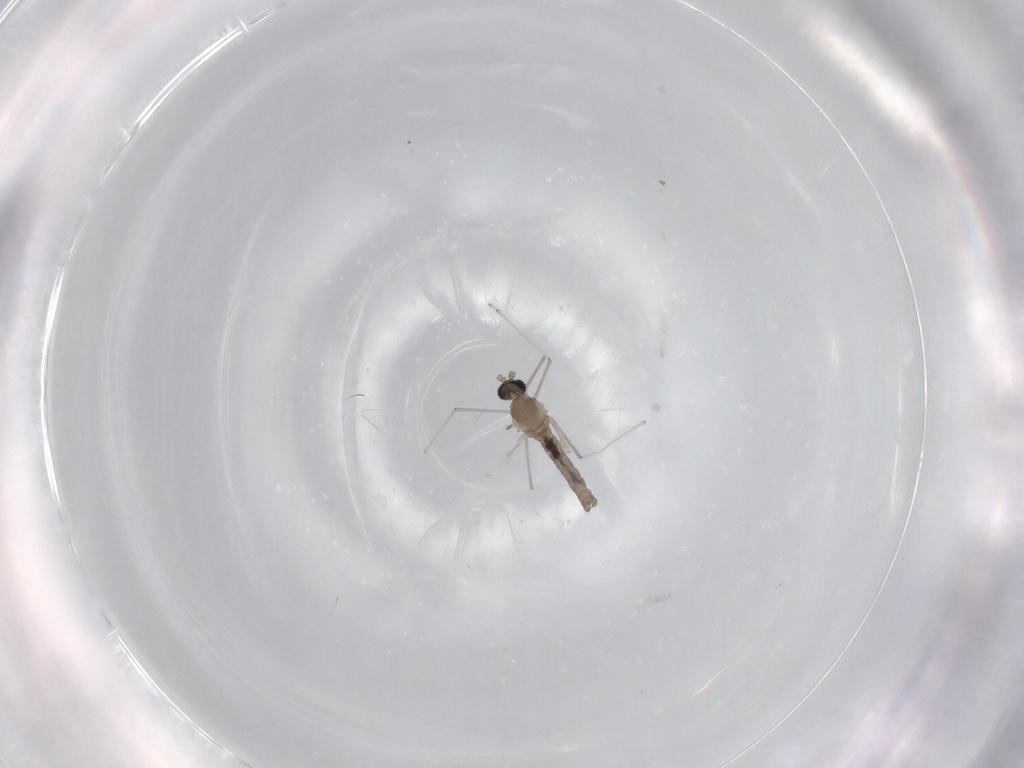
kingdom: Animalia
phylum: Arthropoda
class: Insecta
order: Diptera
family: Cecidomyiidae
